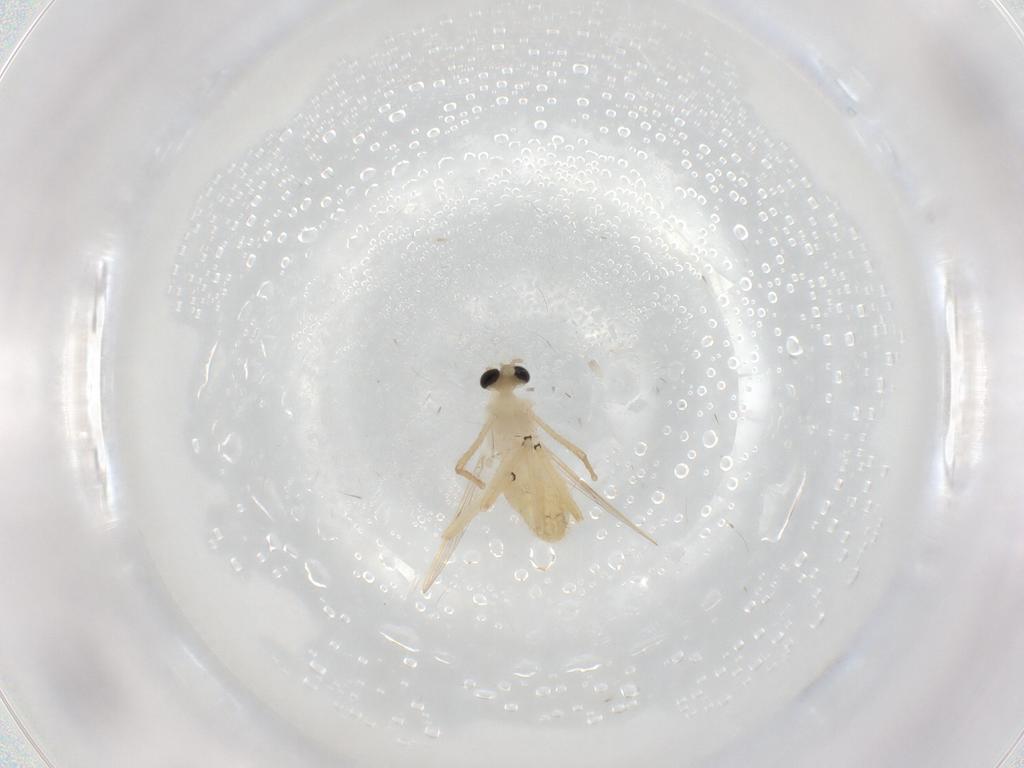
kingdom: Animalia
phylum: Arthropoda
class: Insecta
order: Diptera
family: Chironomidae
